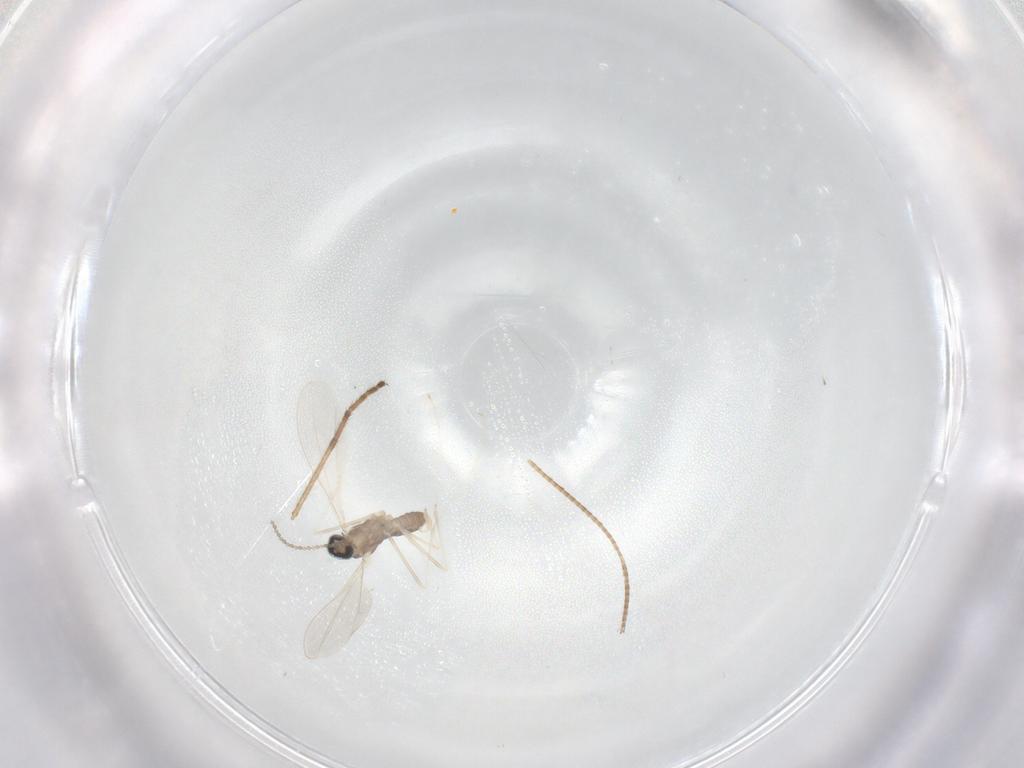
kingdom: Animalia
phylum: Arthropoda
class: Insecta
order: Diptera
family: Cecidomyiidae
